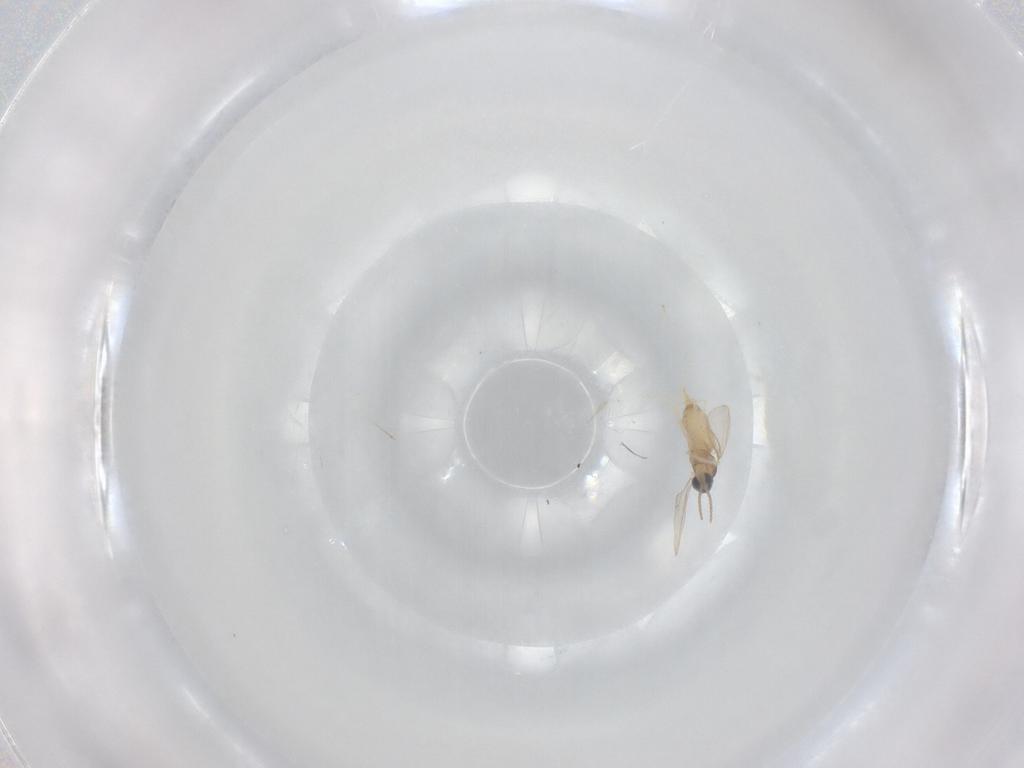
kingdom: Animalia
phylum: Arthropoda
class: Insecta
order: Diptera
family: Cecidomyiidae
